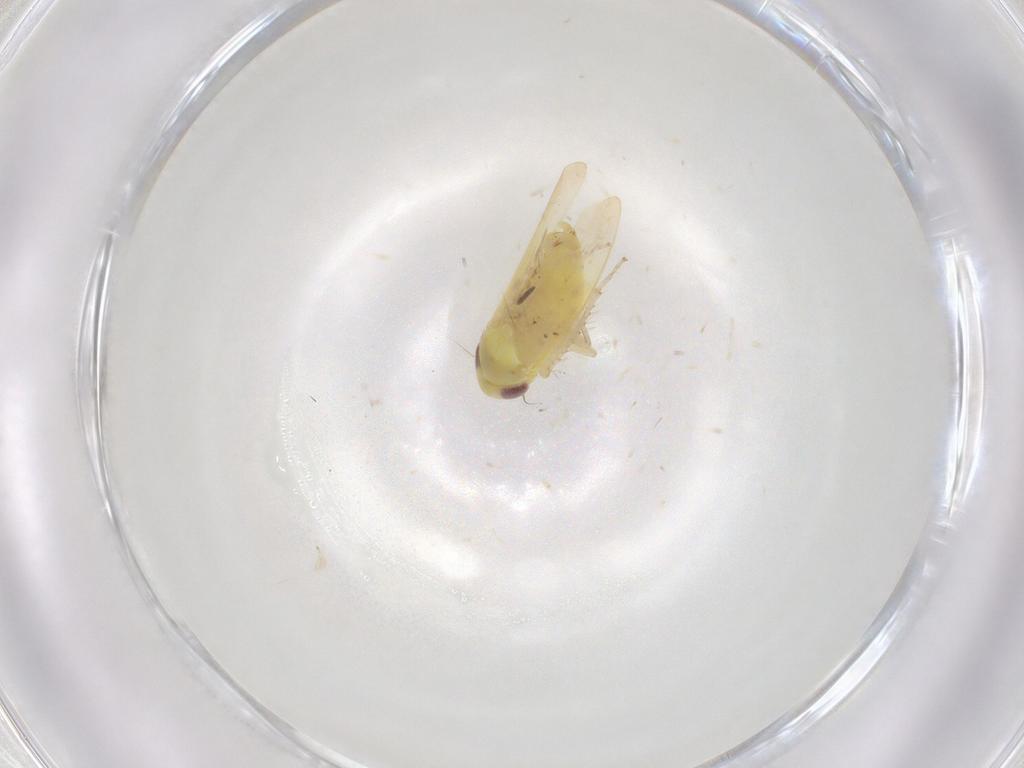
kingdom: Animalia
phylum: Arthropoda
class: Insecta
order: Hemiptera
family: Cicadellidae
